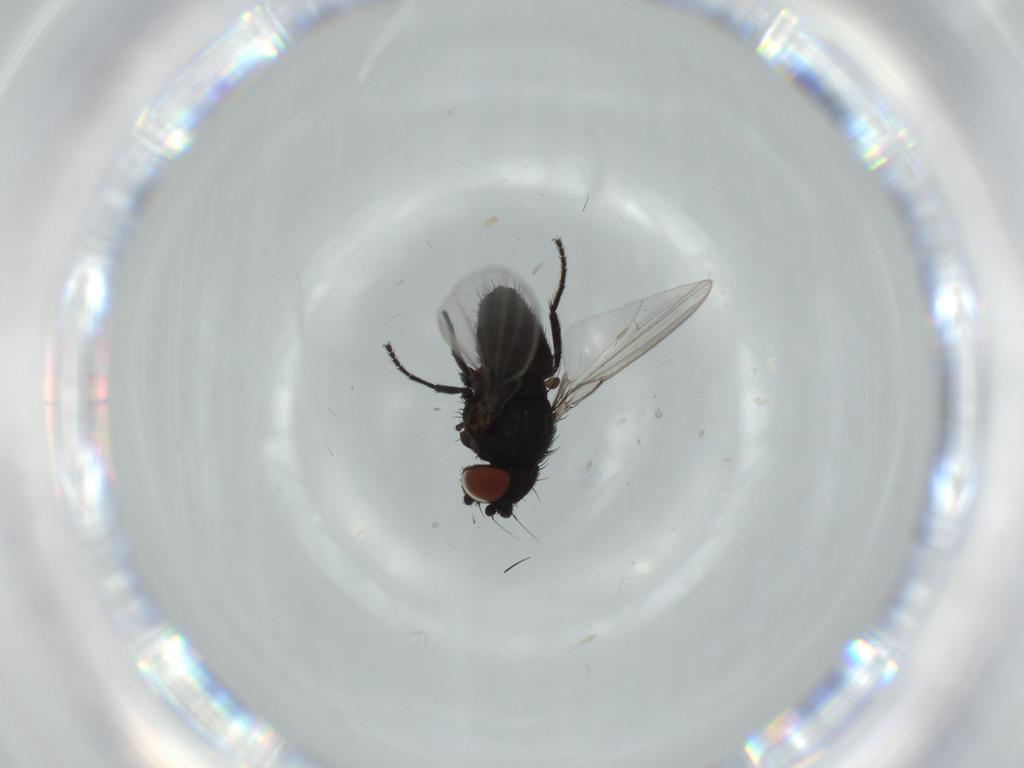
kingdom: Animalia
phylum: Arthropoda
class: Insecta
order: Diptera
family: Ceratopogonidae
